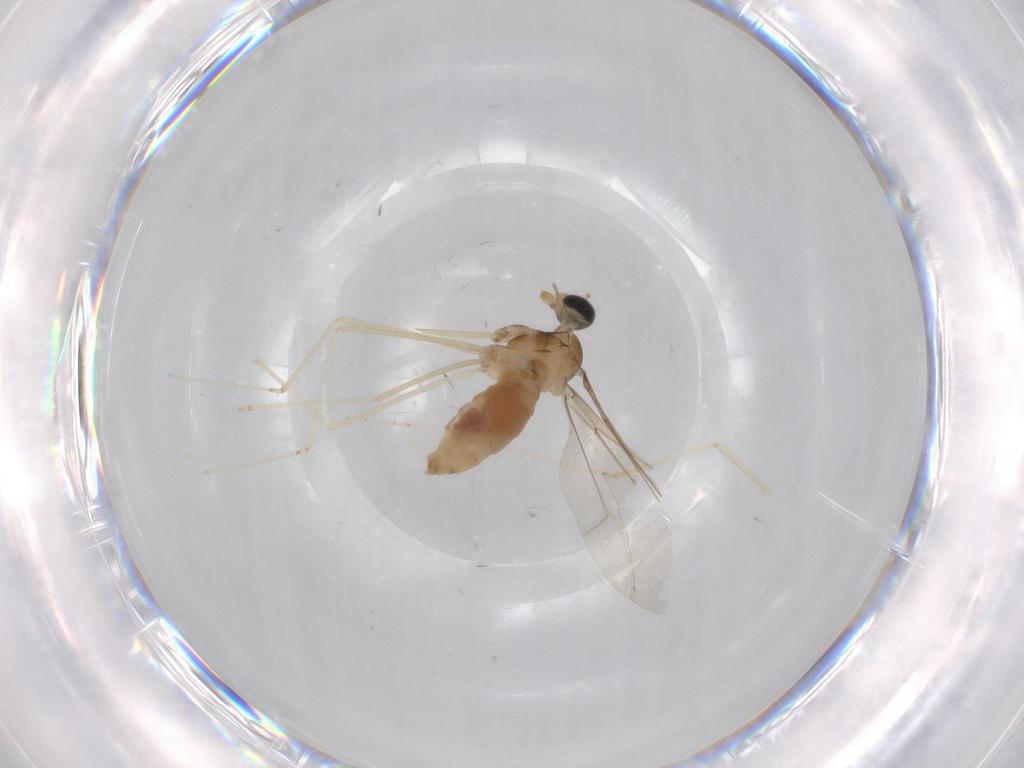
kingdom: Animalia
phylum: Arthropoda
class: Insecta
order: Diptera
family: Cecidomyiidae
